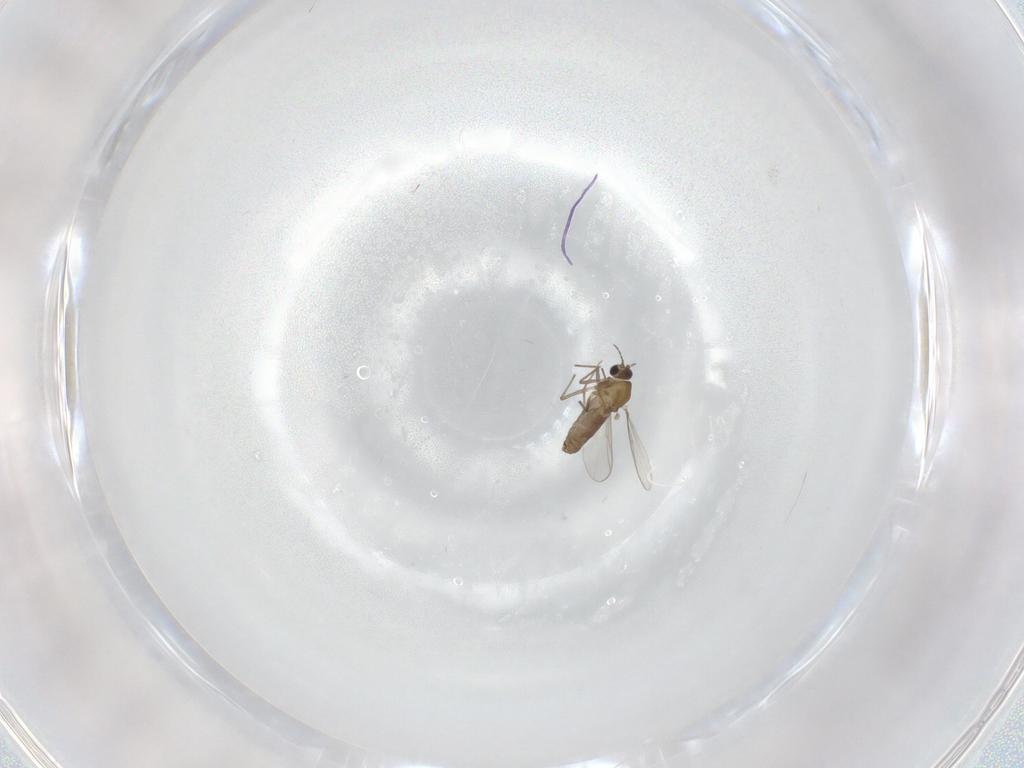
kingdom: Animalia
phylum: Arthropoda
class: Insecta
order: Diptera
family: Chironomidae
